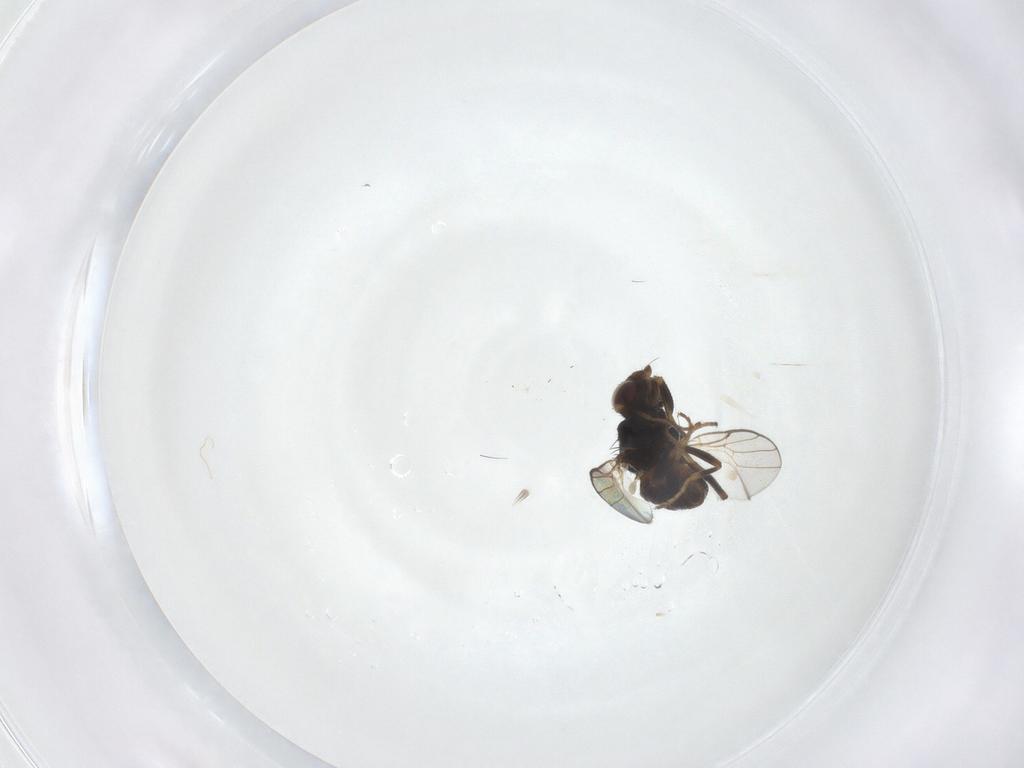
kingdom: Animalia
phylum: Arthropoda
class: Insecta
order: Diptera
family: Chloropidae
